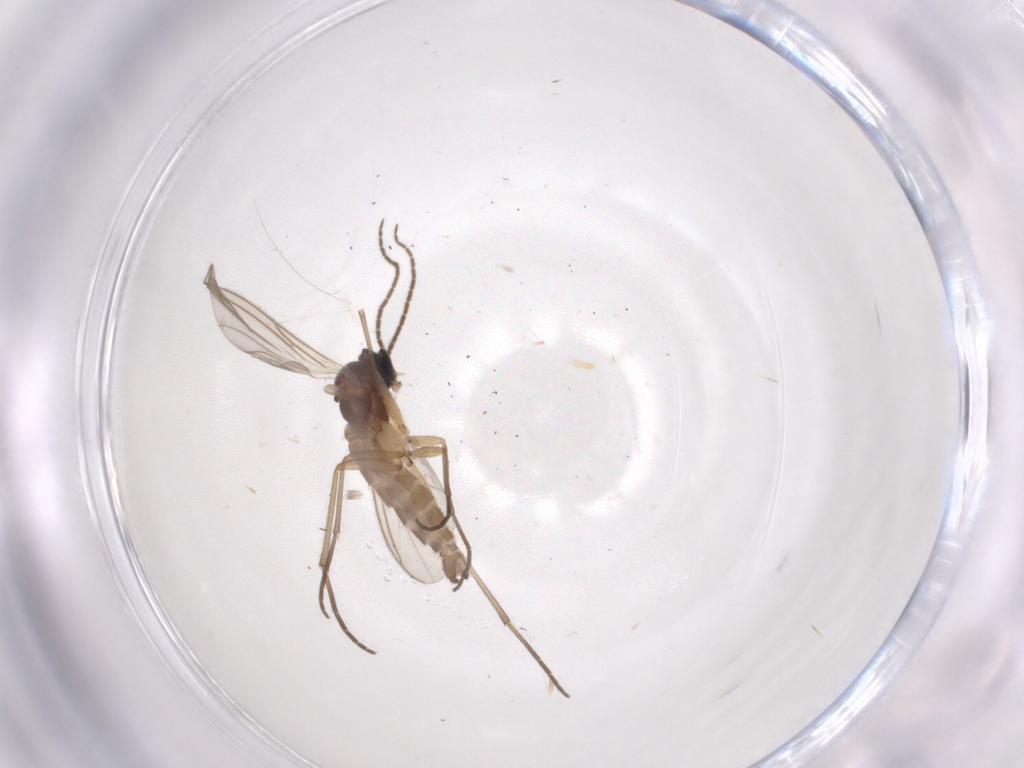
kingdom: Animalia
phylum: Arthropoda
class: Insecta
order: Diptera
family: Sciaridae
